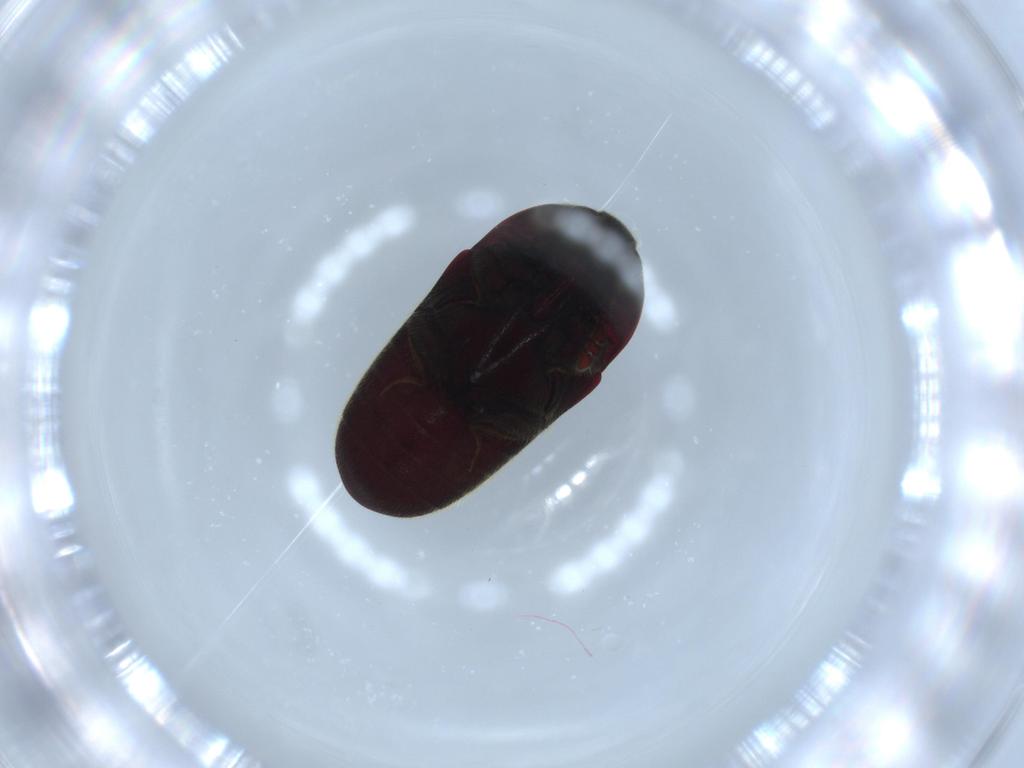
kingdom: Animalia
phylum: Arthropoda
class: Insecta
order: Coleoptera
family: Throscidae
